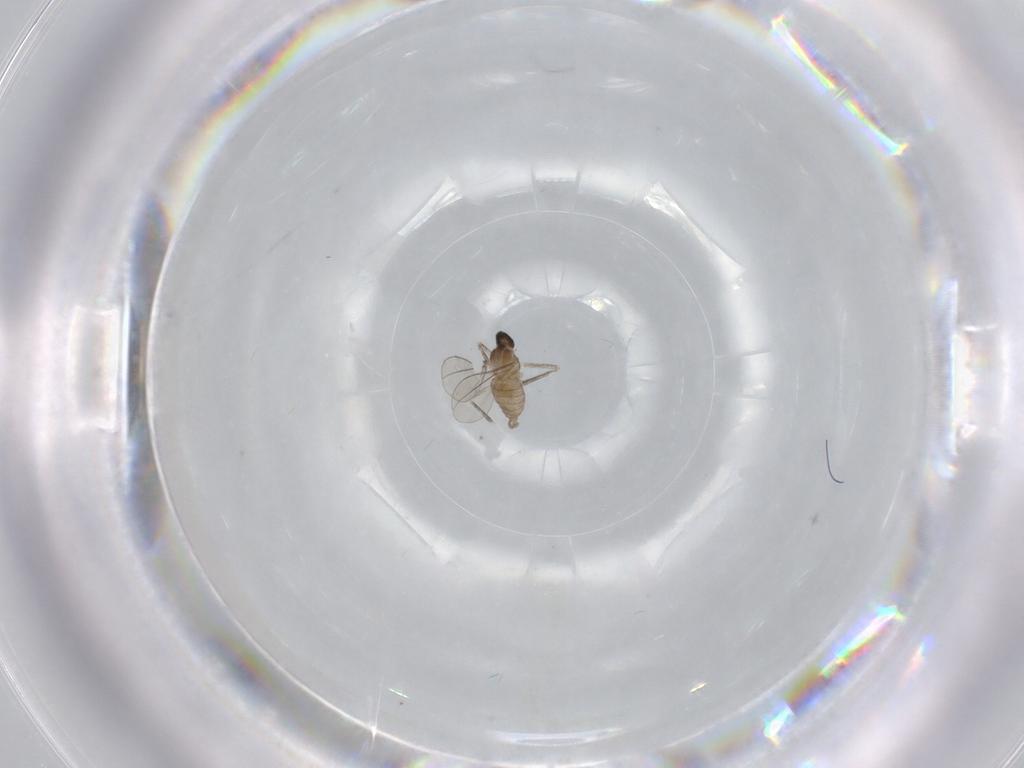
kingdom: Animalia
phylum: Arthropoda
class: Insecta
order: Diptera
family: Cecidomyiidae
